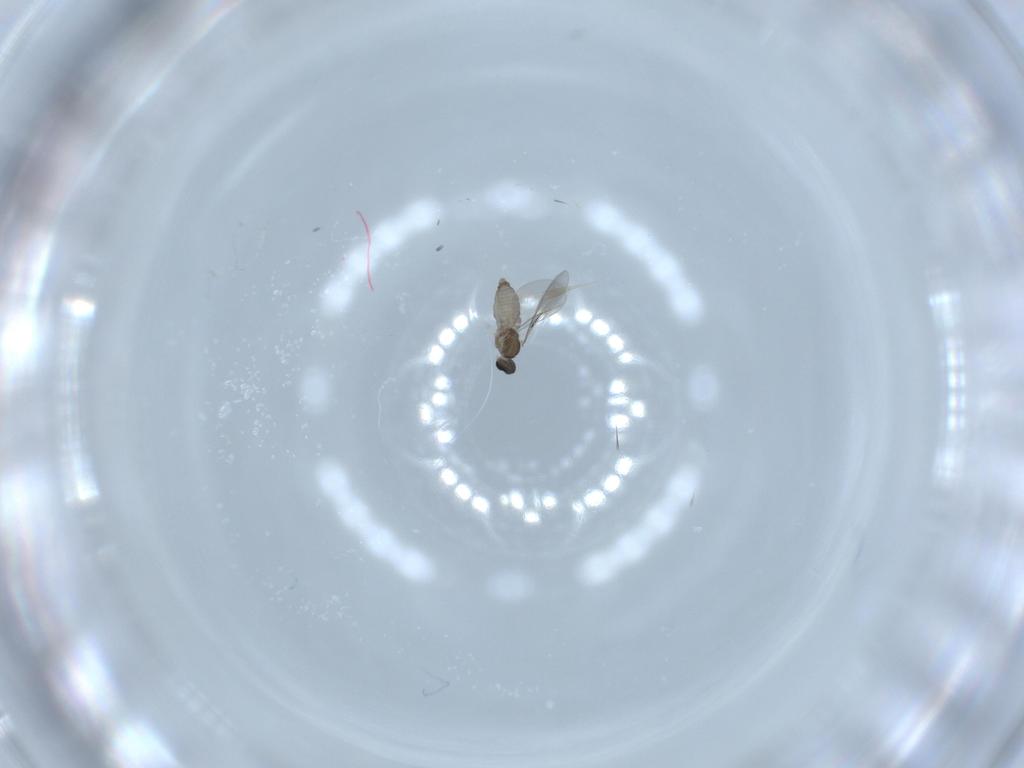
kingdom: Animalia
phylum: Arthropoda
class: Insecta
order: Diptera
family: Cecidomyiidae
